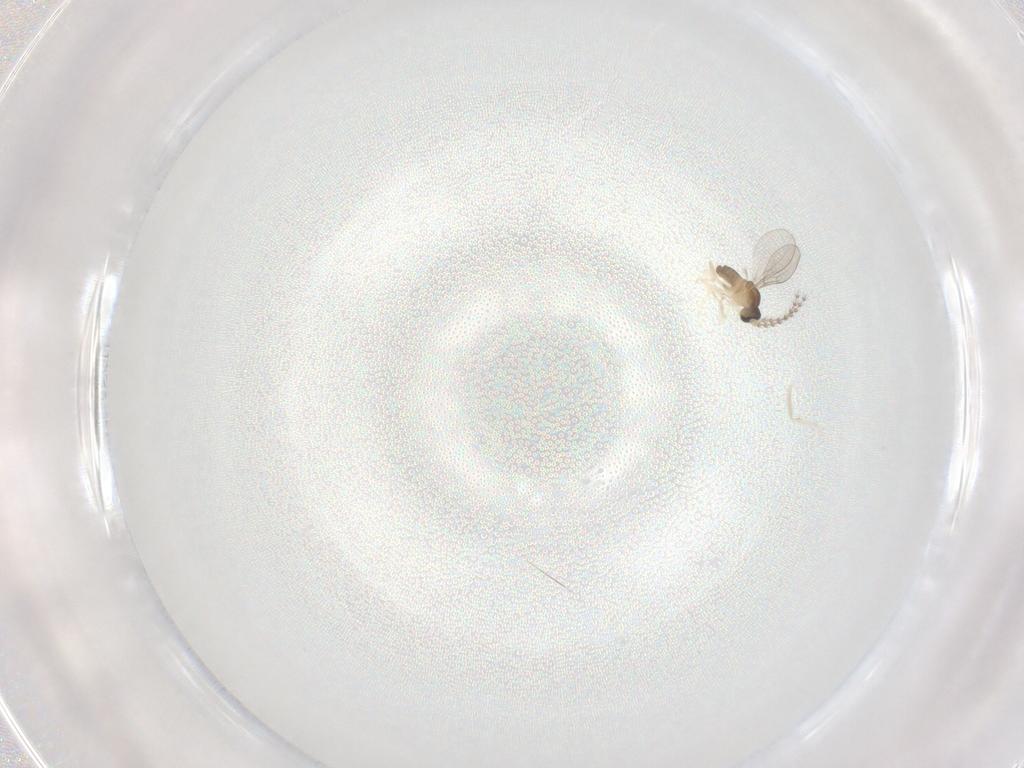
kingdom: Animalia
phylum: Arthropoda
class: Insecta
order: Diptera
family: Cecidomyiidae
